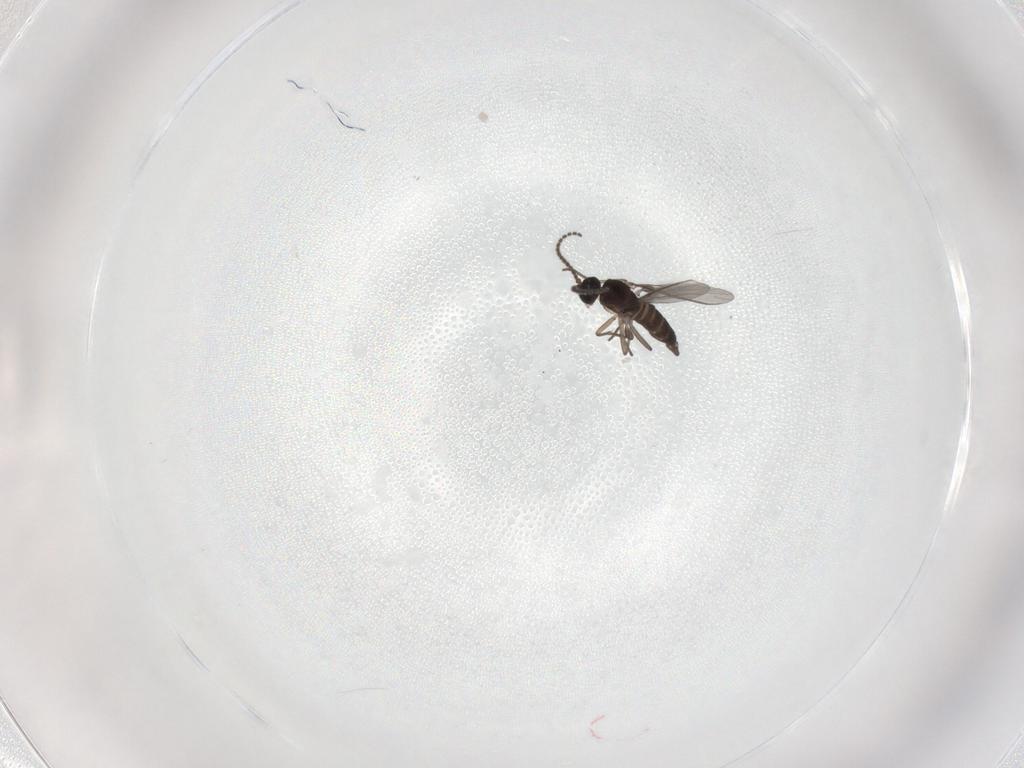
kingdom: Animalia
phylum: Arthropoda
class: Insecta
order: Diptera
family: Sciaridae
